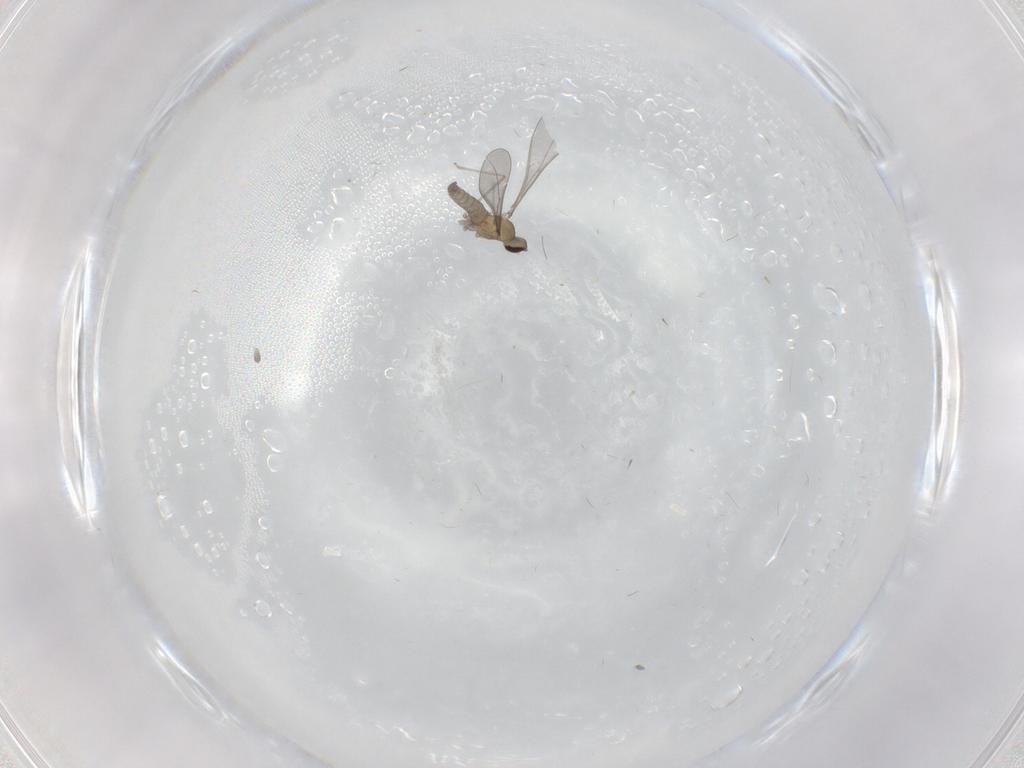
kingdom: Animalia
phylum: Arthropoda
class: Insecta
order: Diptera
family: Cecidomyiidae
